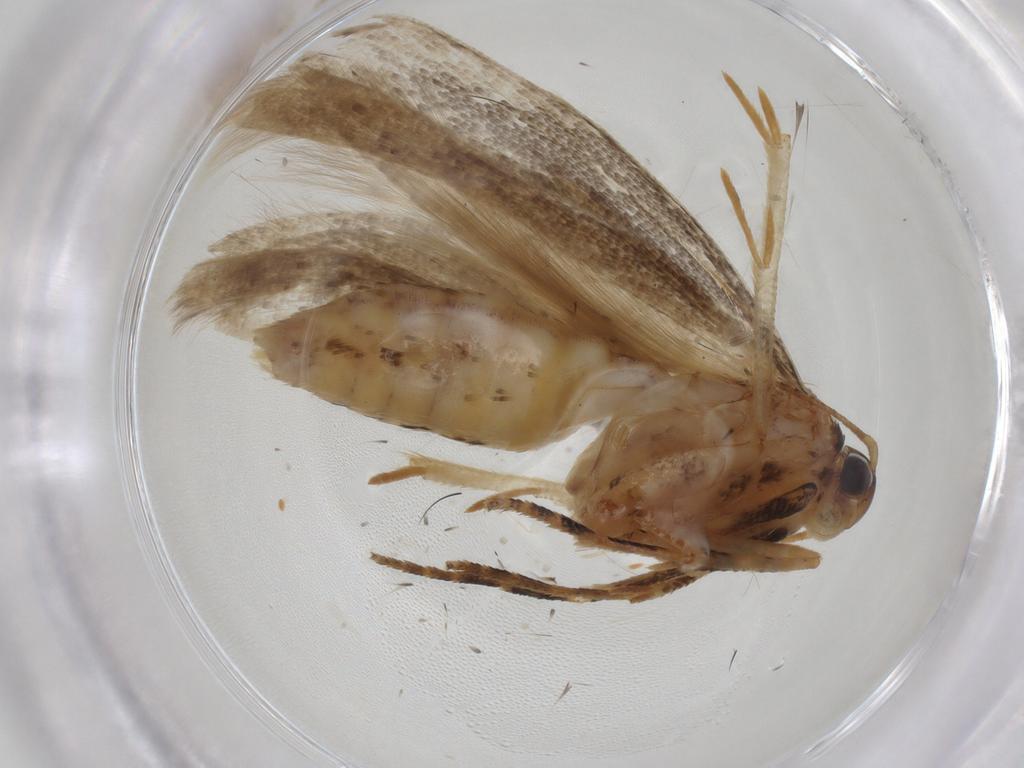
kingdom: Animalia
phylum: Arthropoda
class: Insecta
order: Lepidoptera
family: Gelechiidae
